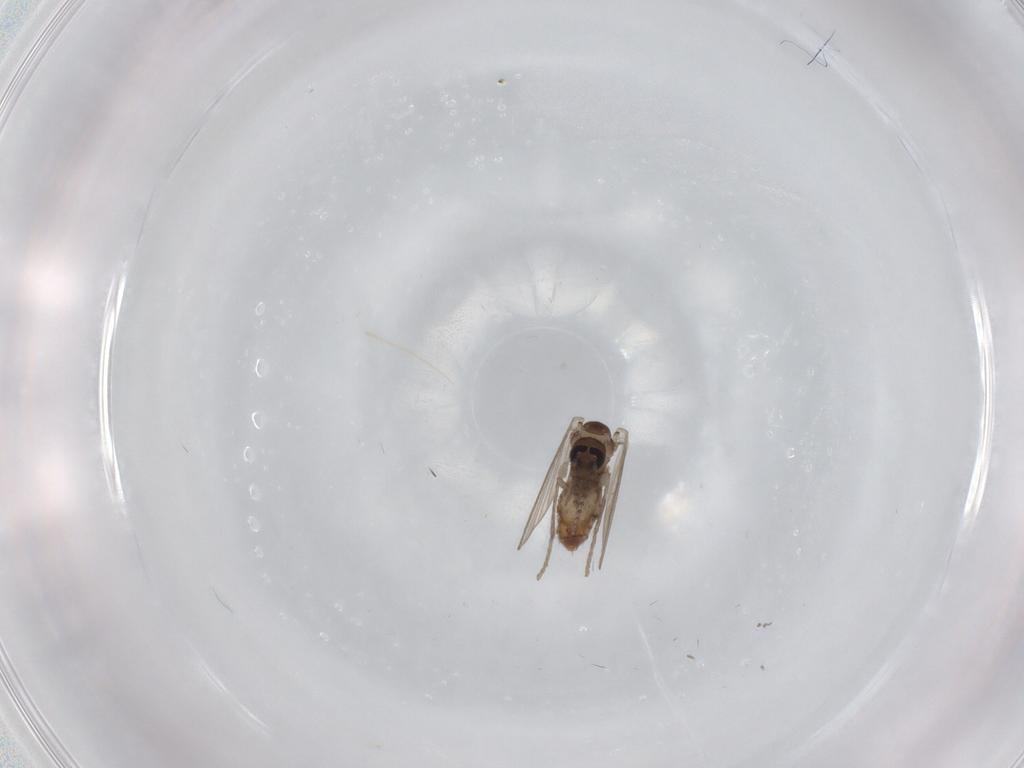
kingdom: Animalia
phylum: Arthropoda
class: Insecta
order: Diptera
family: Psychodidae
